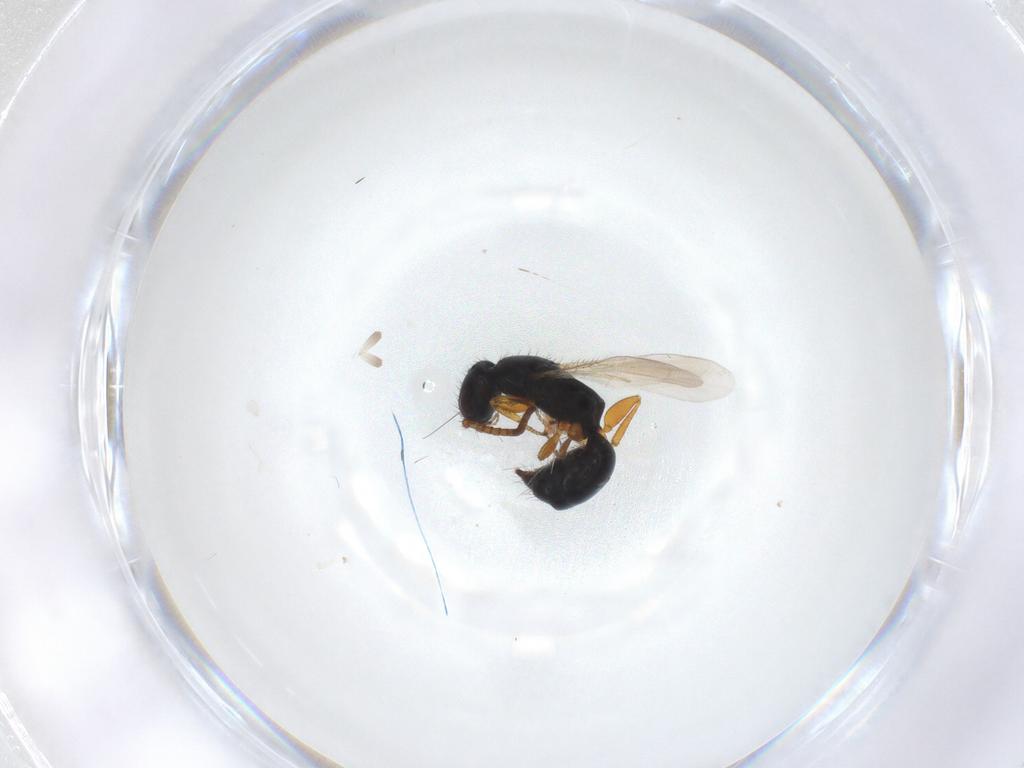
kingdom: Animalia
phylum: Arthropoda
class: Insecta
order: Hymenoptera
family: Bethylidae
